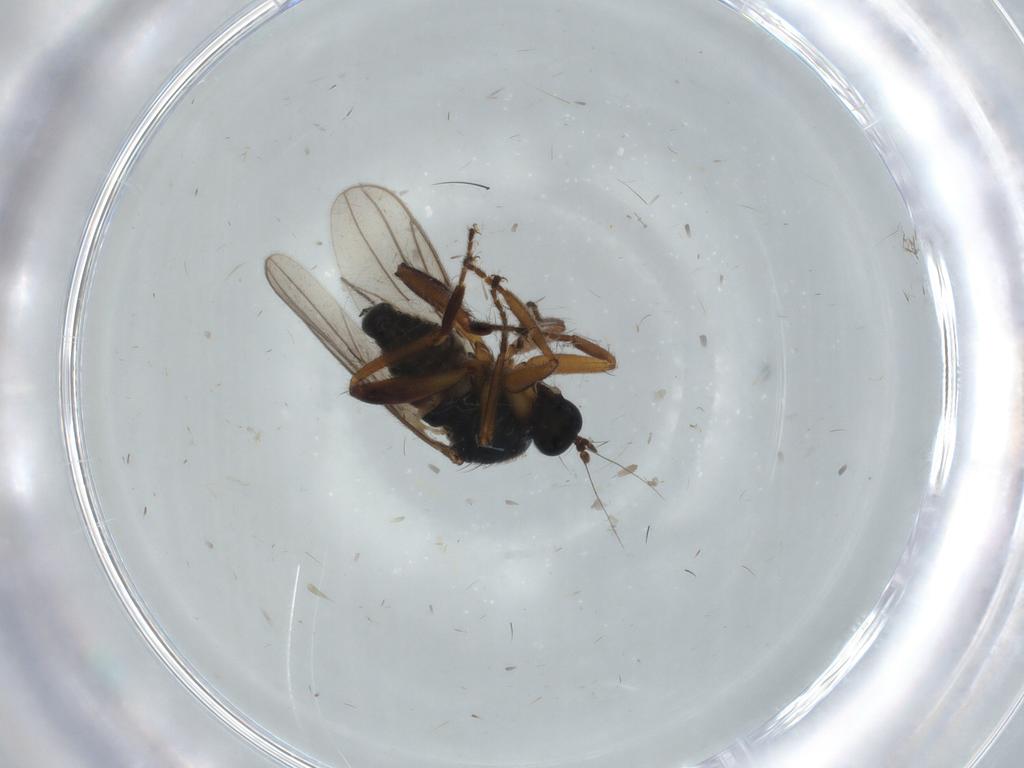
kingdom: Animalia
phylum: Arthropoda
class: Insecta
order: Diptera
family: Hybotidae
